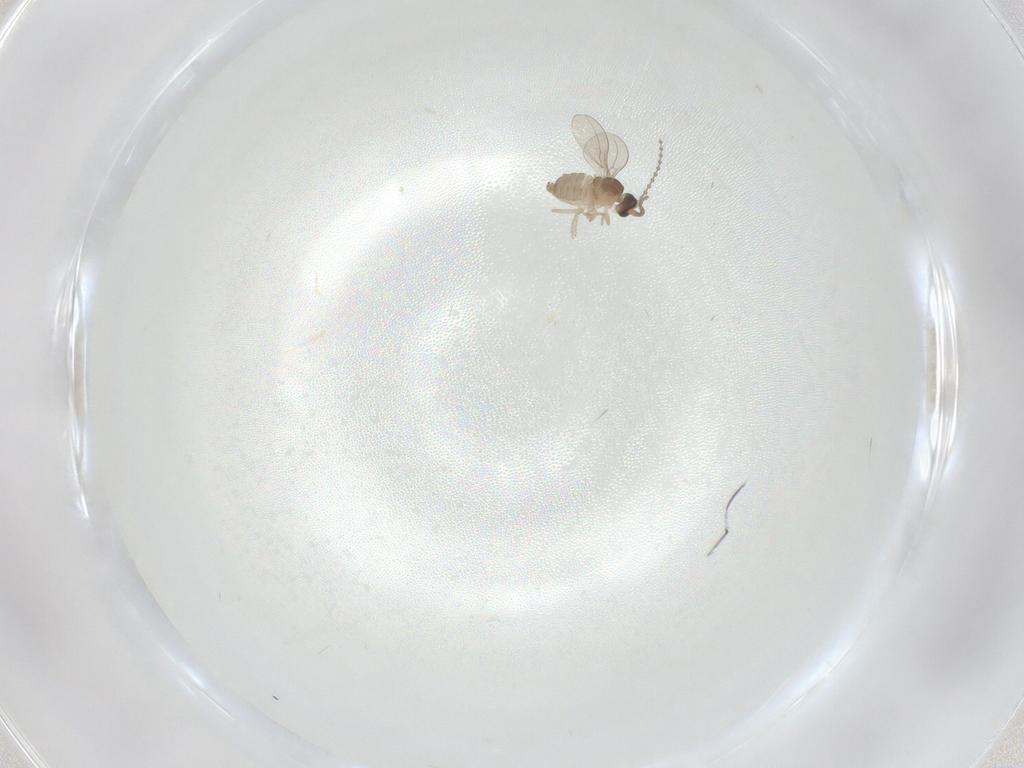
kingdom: Animalia
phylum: Arthropoda
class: Insecta
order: Diptera
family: Cecidomyiidae
